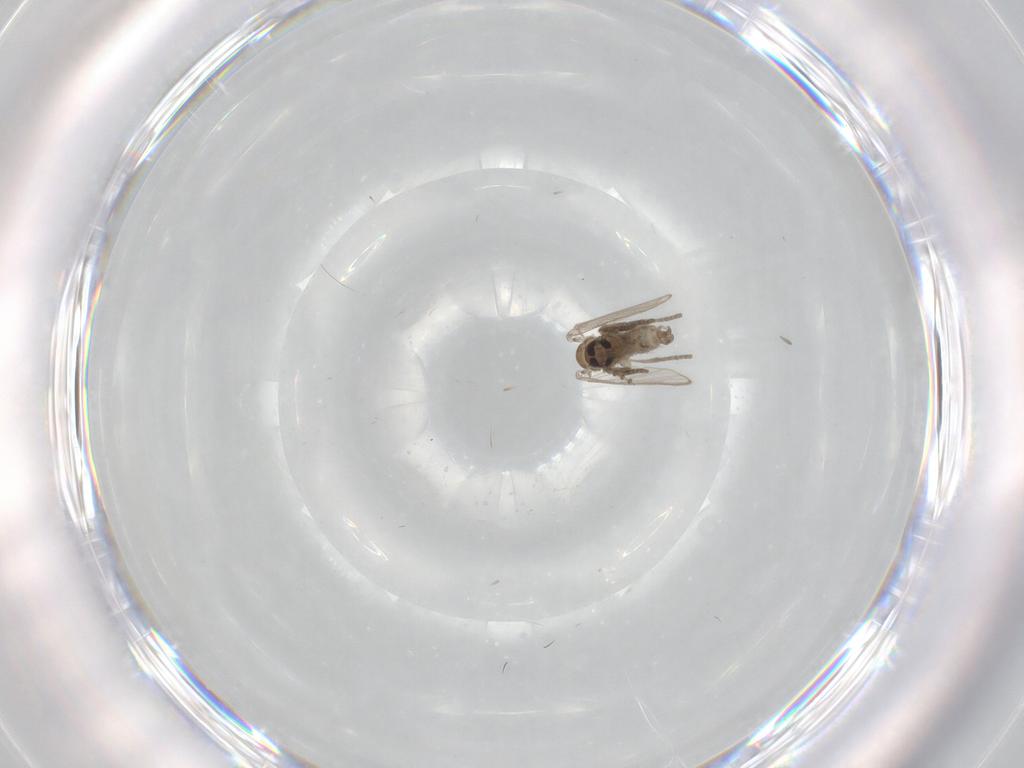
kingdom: Animalia
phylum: Arthropoda
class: Insecta
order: Diptera
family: Psychodidae
